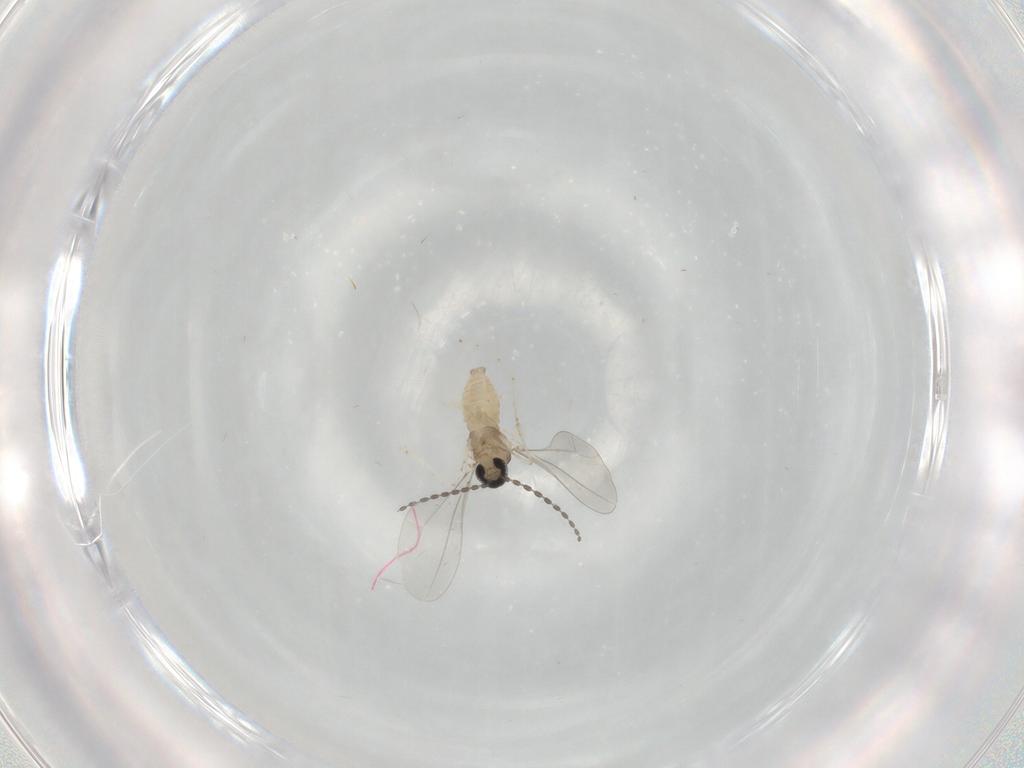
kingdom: Animalia
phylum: Arthropoda
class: Insecta
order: Diptera
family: Cecidomyiidae
